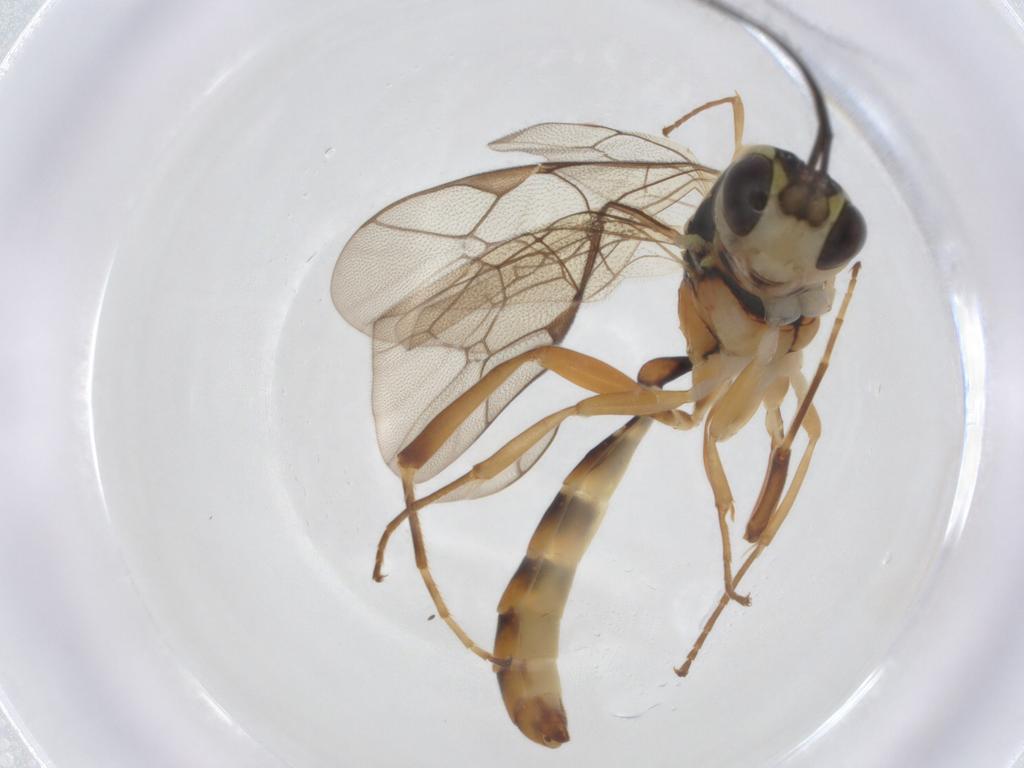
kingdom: Animalia
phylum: Arthropoda
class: Insecta
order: Hymenoptera
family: Ichneumonidae
